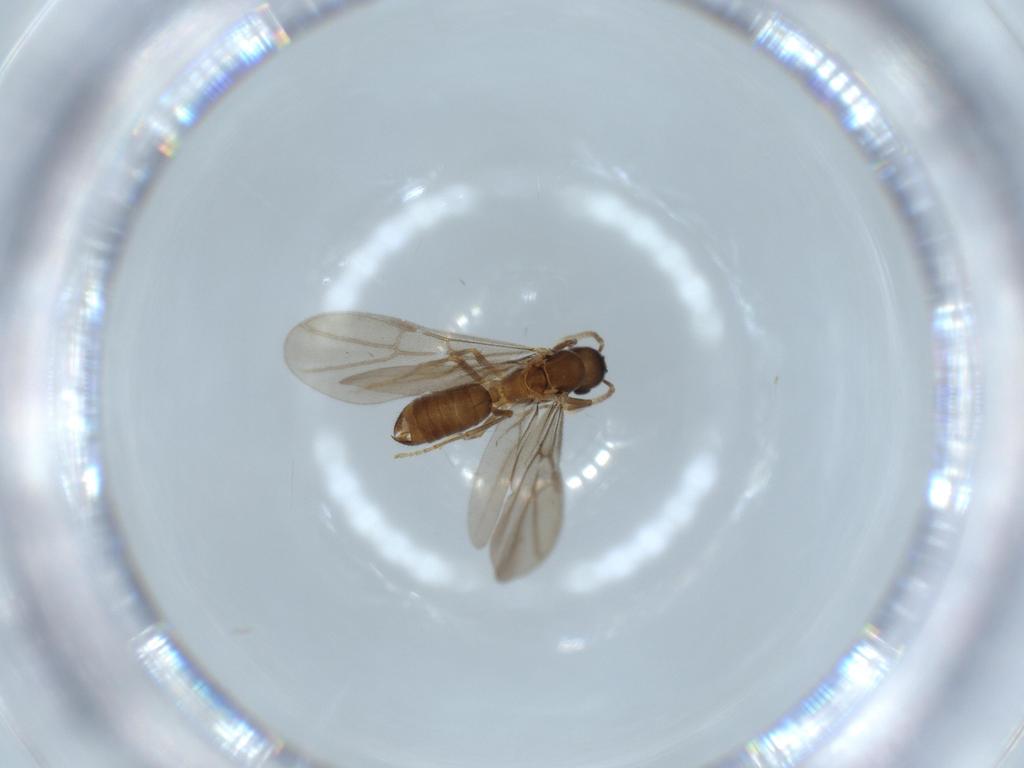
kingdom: Animalia
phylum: Arthropoda
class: Insecta
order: Hymenoptera
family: Formicidae
